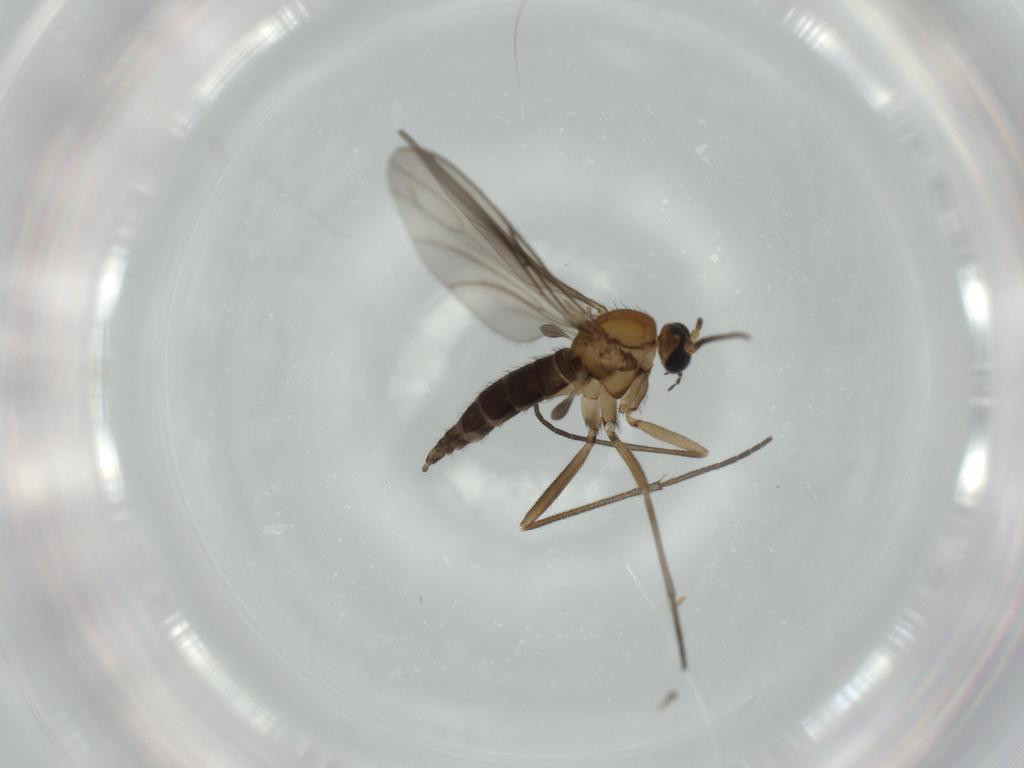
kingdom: Animalia
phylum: Arthropoda
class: Insecta
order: Diptera
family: Sciaridae
